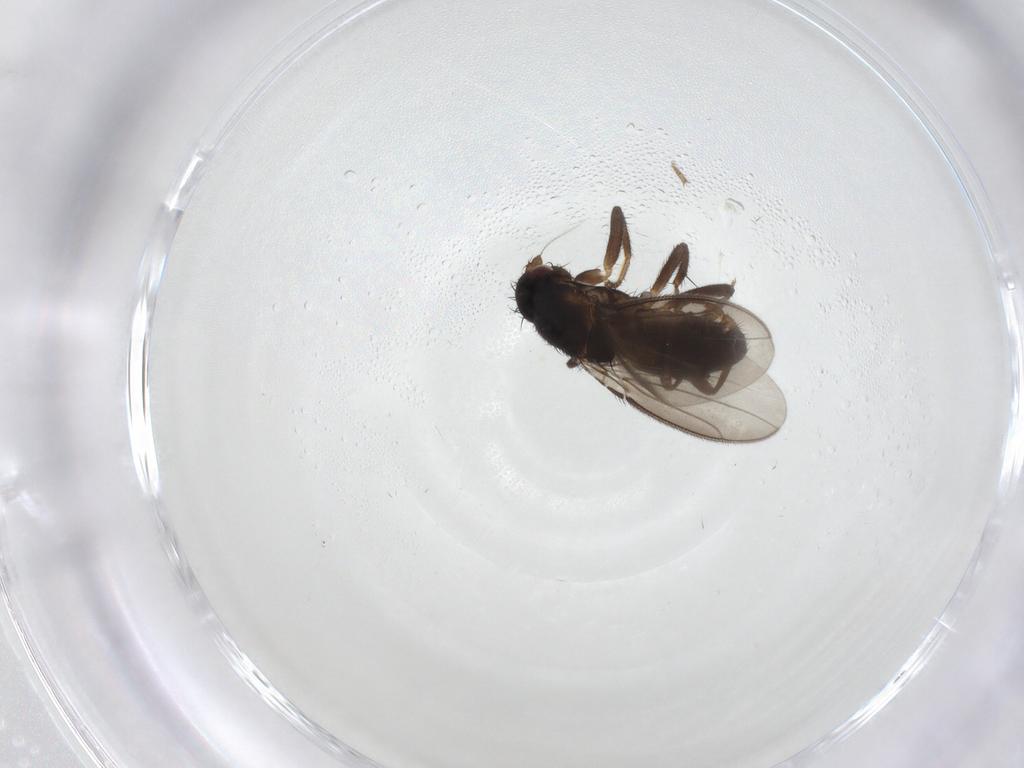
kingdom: Animalia
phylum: Arthropoda
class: Insecta
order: Diptera
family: Sphaeroceridae
